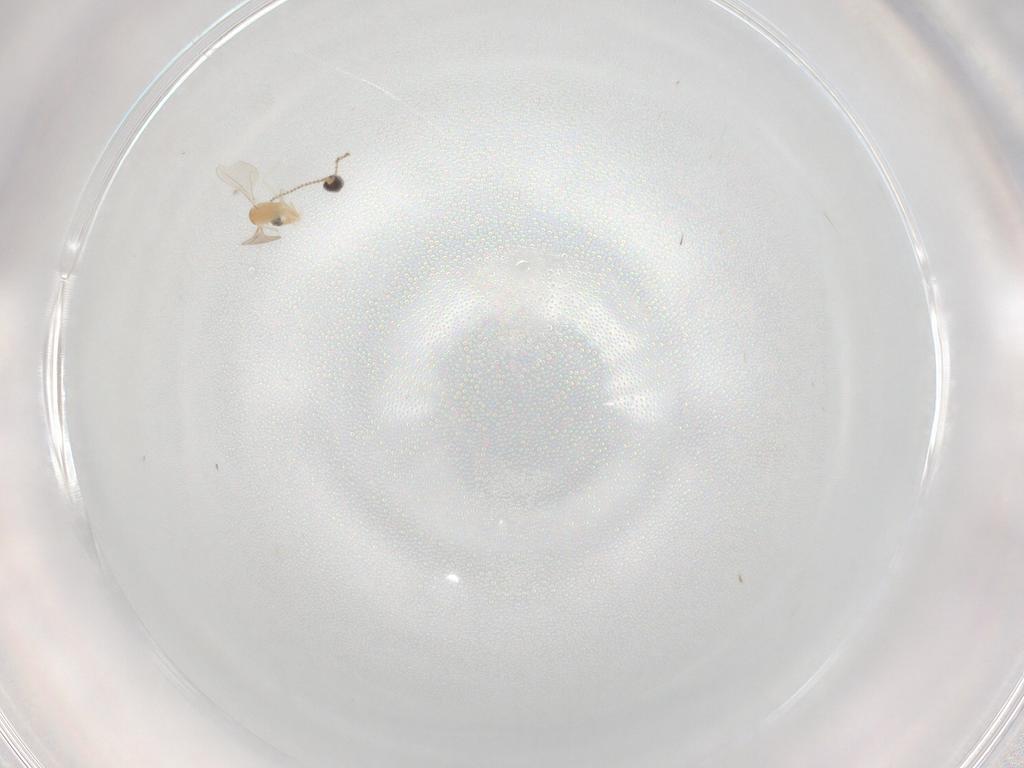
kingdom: Animalia
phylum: Arthropoda
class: Insecta
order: Diptera
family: Cecidomyiidae
